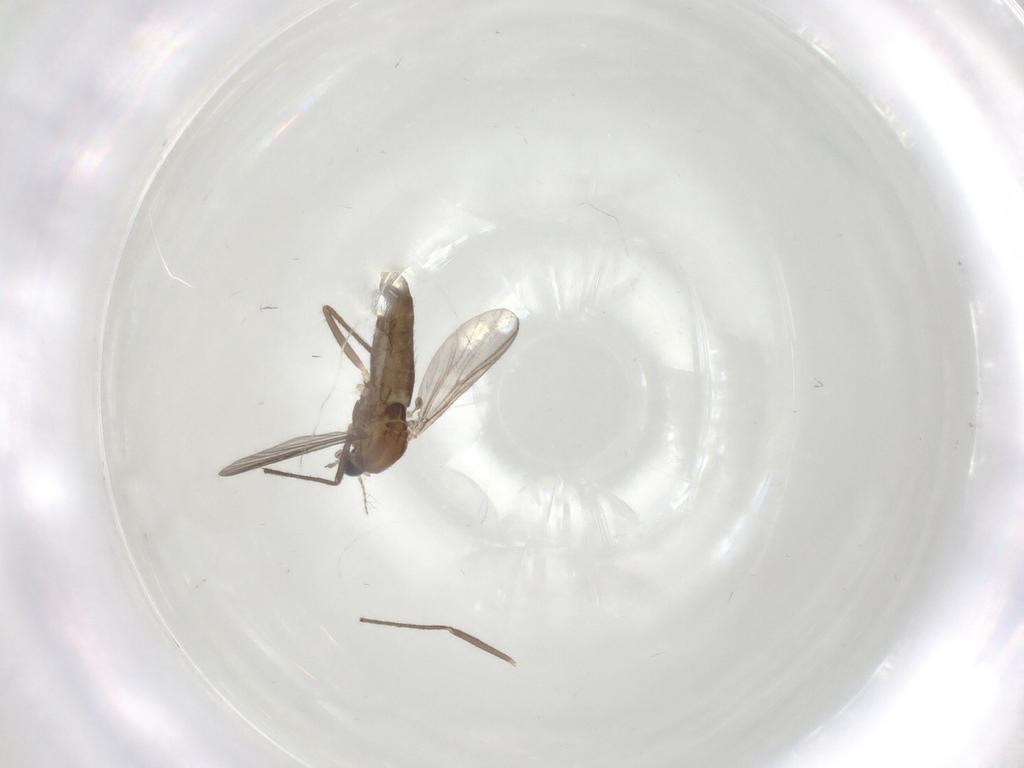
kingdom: Animalia
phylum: Arthropoda
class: Insecta
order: Diptera
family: Chironomidae
